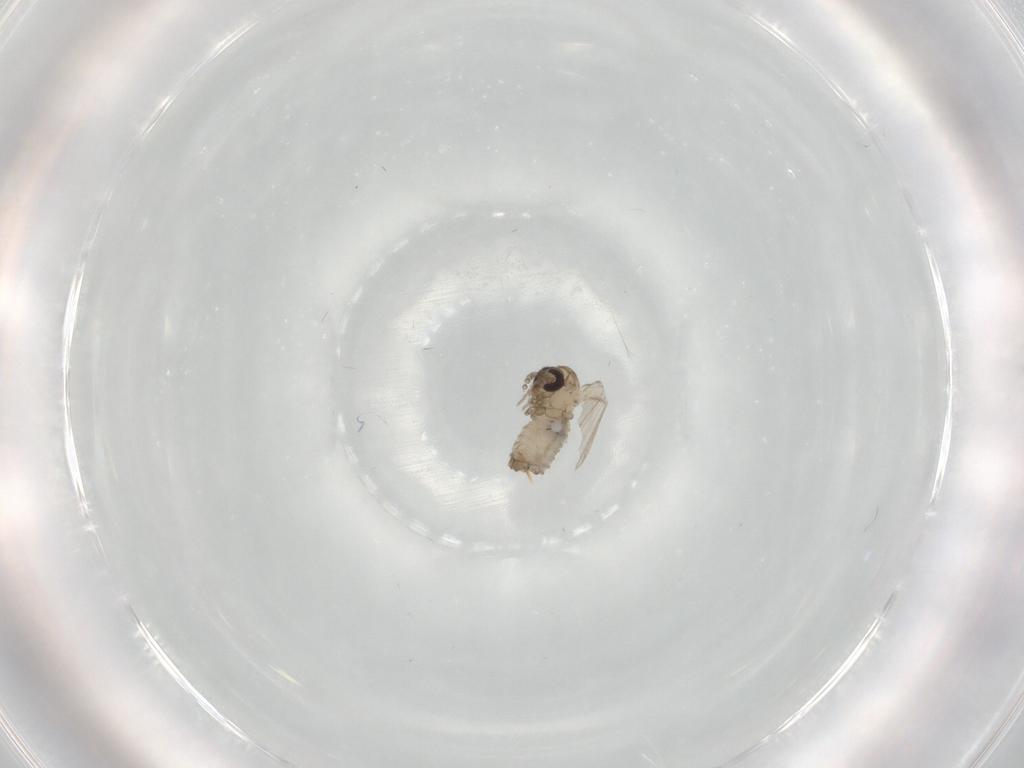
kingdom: Animalia
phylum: Arthropoda
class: Insecta
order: Diptera
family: Psychodidae
